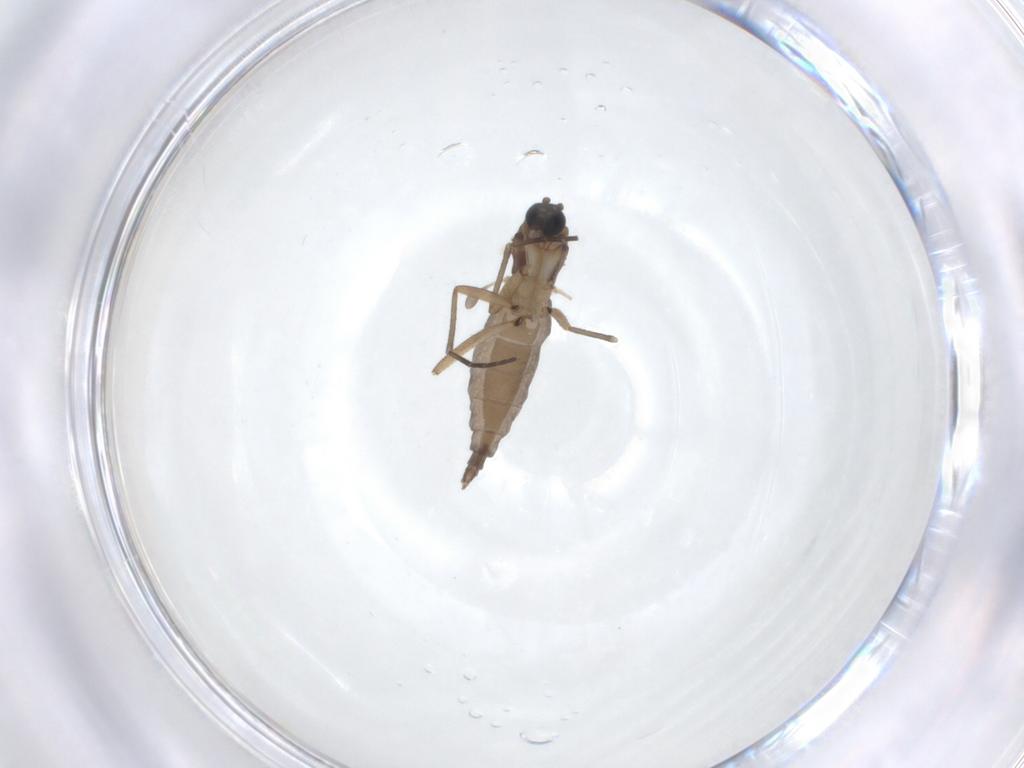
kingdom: Animalia
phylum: Arthropoda
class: Insecta
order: Diptera
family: Sciaridae
